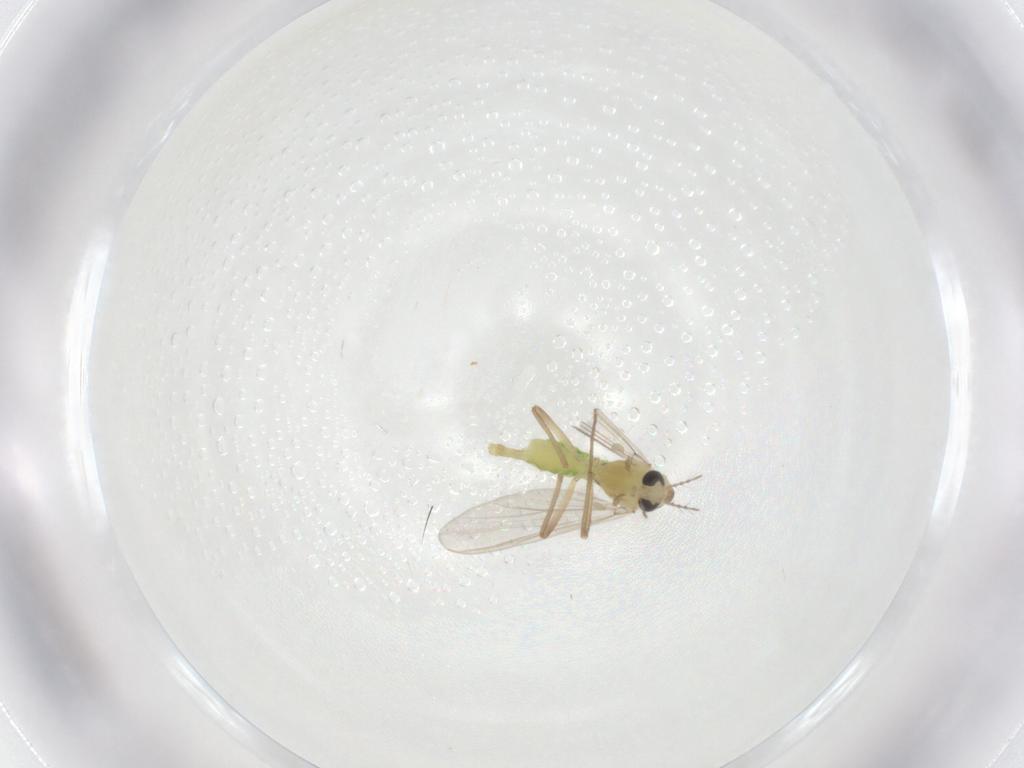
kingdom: Animalia
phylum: Arthropoda
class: Insecta
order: Diptera
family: Chironomidae
